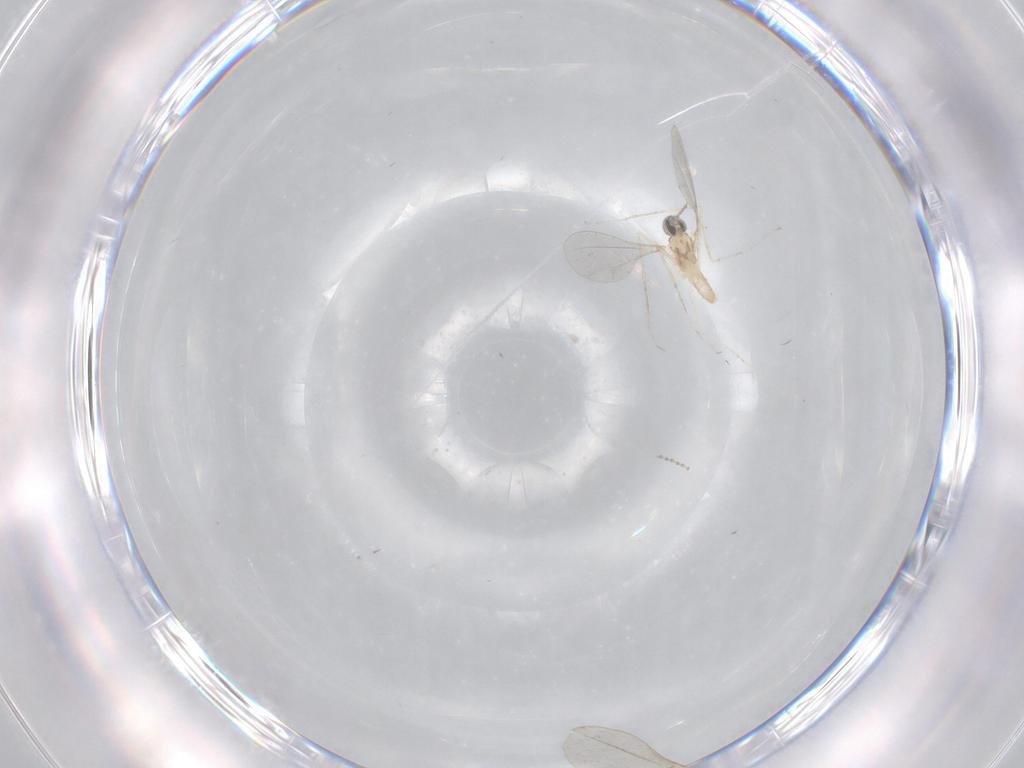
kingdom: Animalia
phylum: Arthropoda
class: Insecta
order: Diptera
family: Cecidomyiidae
